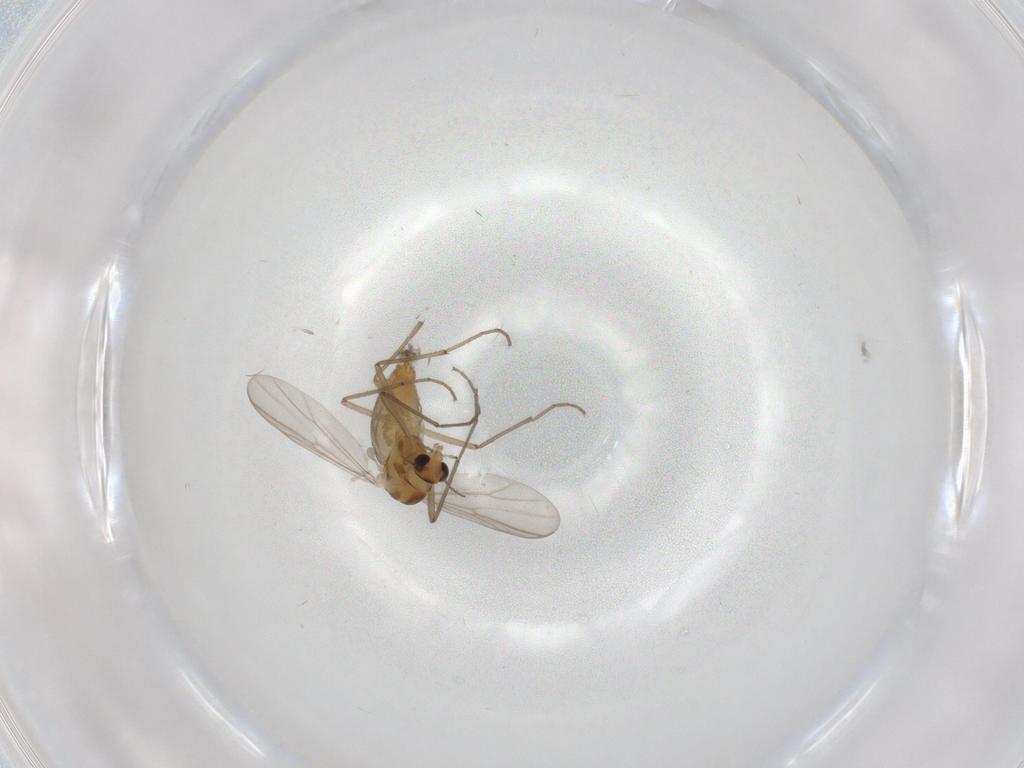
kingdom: Animalia
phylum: Arthropoda
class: Insecta
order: Diptera
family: Chironomidae
